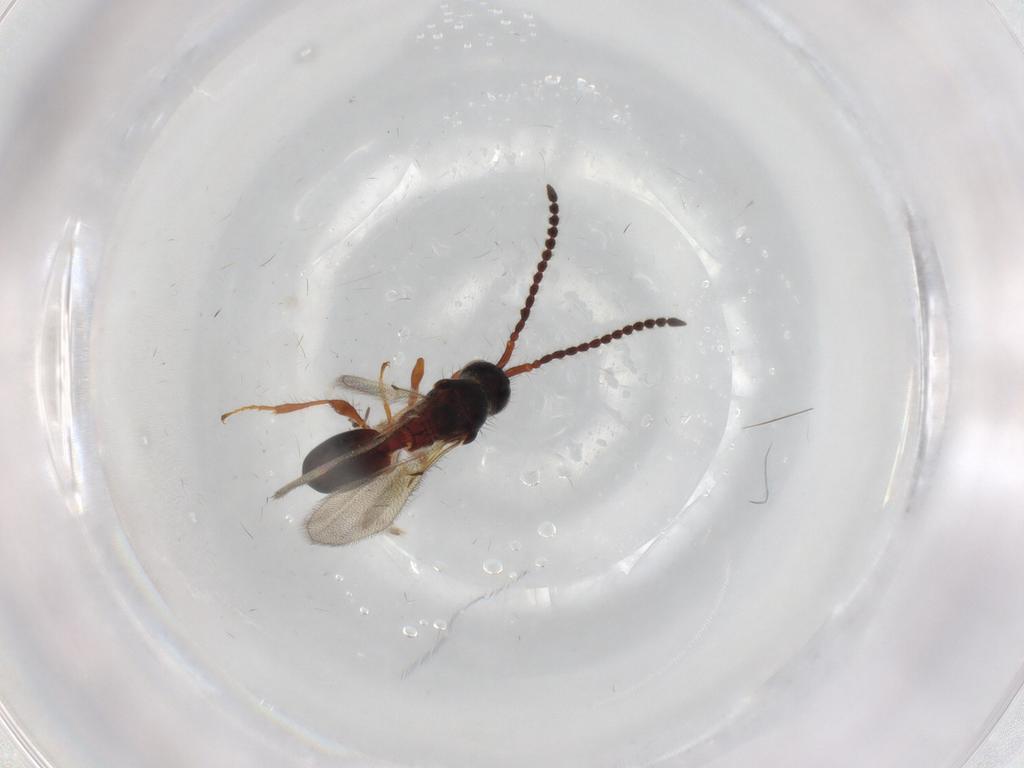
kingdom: Animalia
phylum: Arthropoda
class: Insecta
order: Hymenoptera
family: Diapriidae
